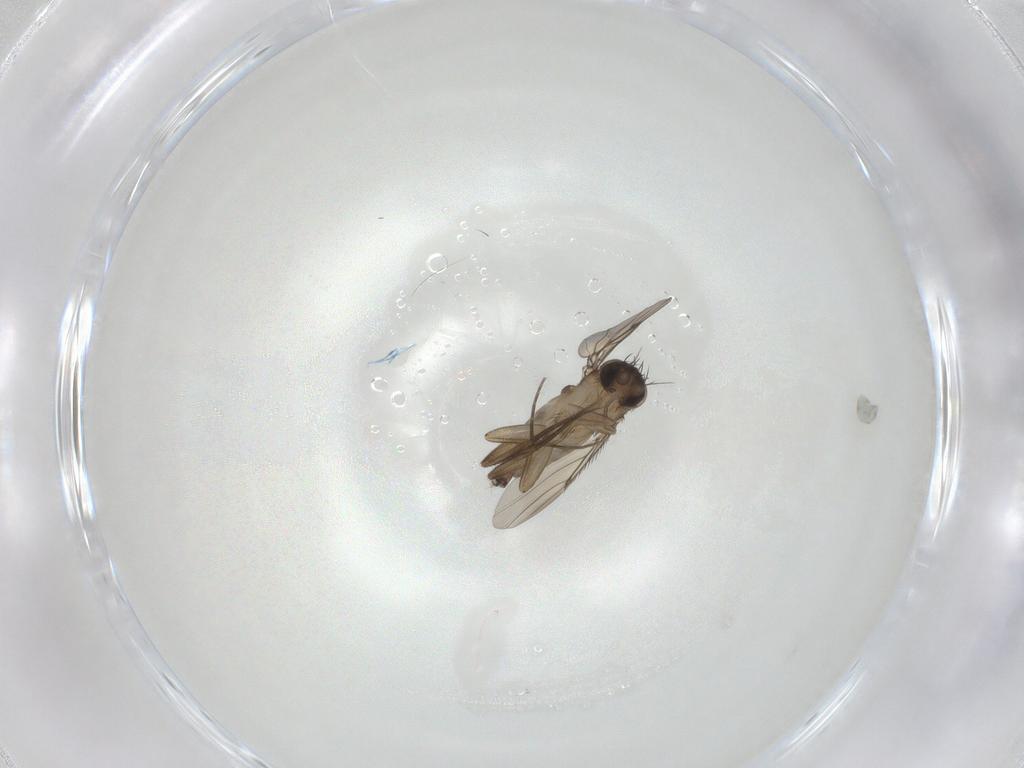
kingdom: Animalia
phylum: Arthropoda
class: Insecta
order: Diptera
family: Phoridae
